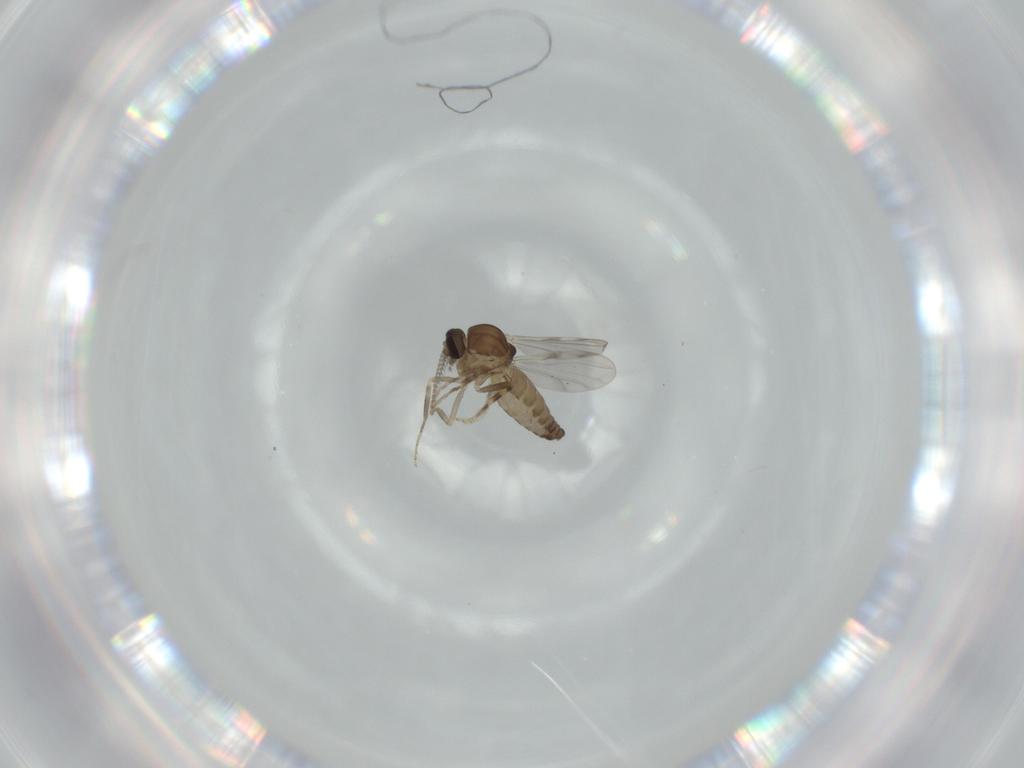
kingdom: Animalia
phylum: Arthropoda
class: Insecta
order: Diptera
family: Ceratopogonidae
